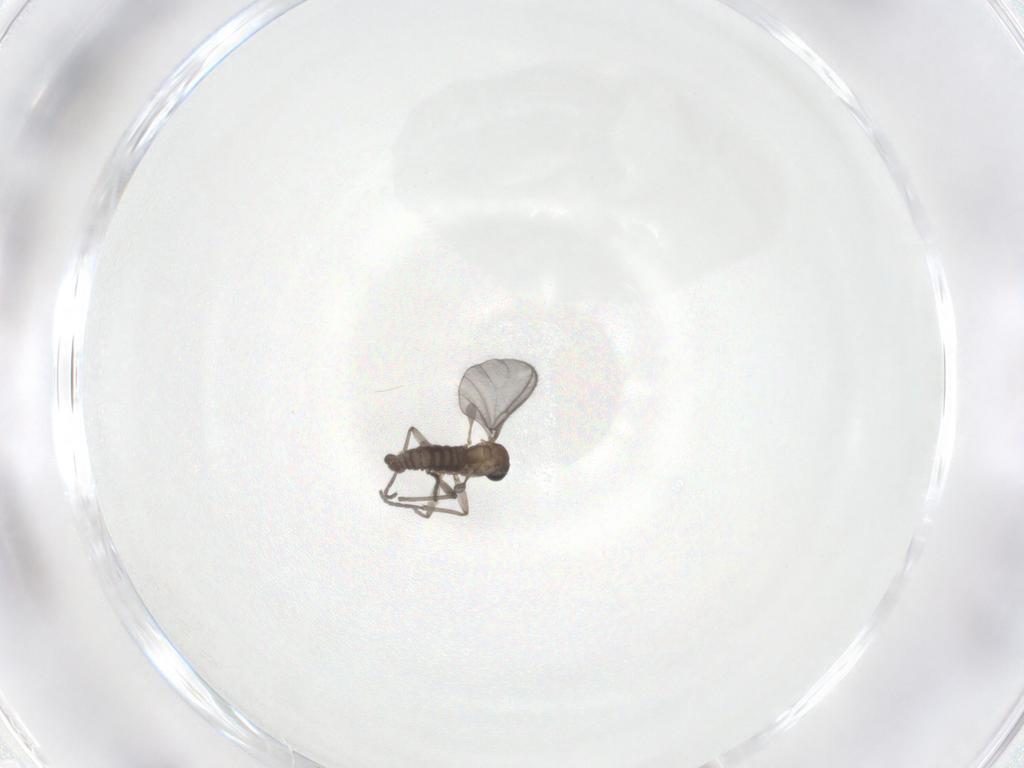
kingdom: Animalia
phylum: Arthropoda
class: Insecta
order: Diptera
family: Sciaridae
